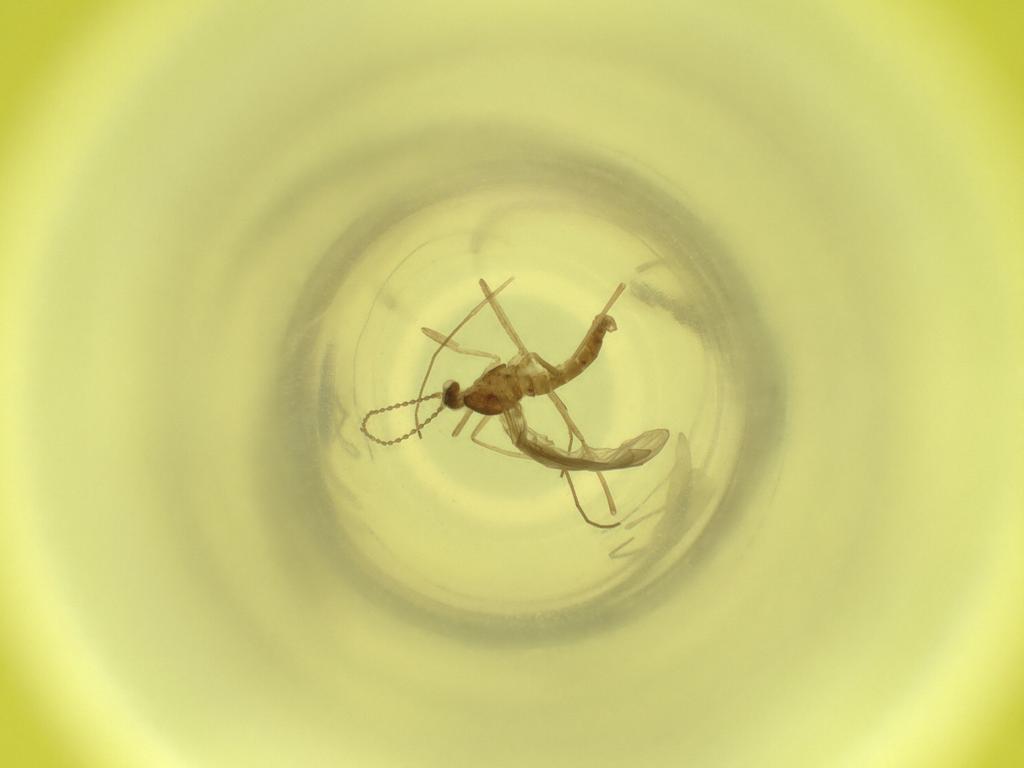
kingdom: Animalia
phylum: Arthropoda
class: Insecta
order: Diptera
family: Cecidomyiidae
